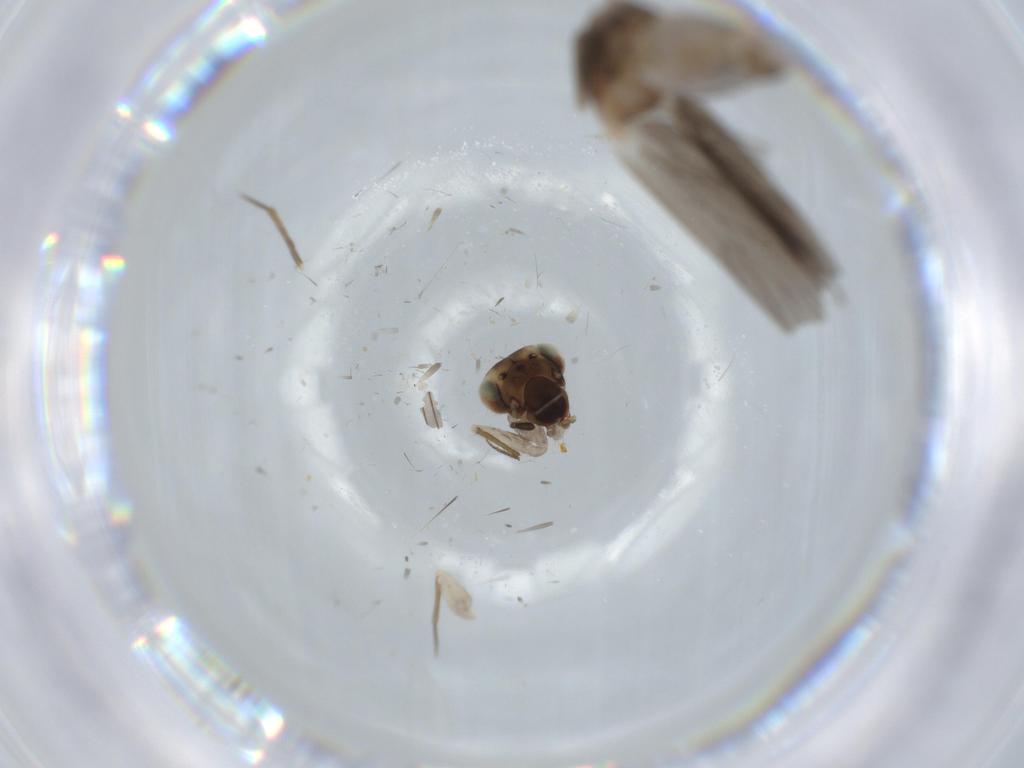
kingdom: Animalia
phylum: Arthropoda
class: Insecta
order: Psocodea
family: Lepidopsocidae
